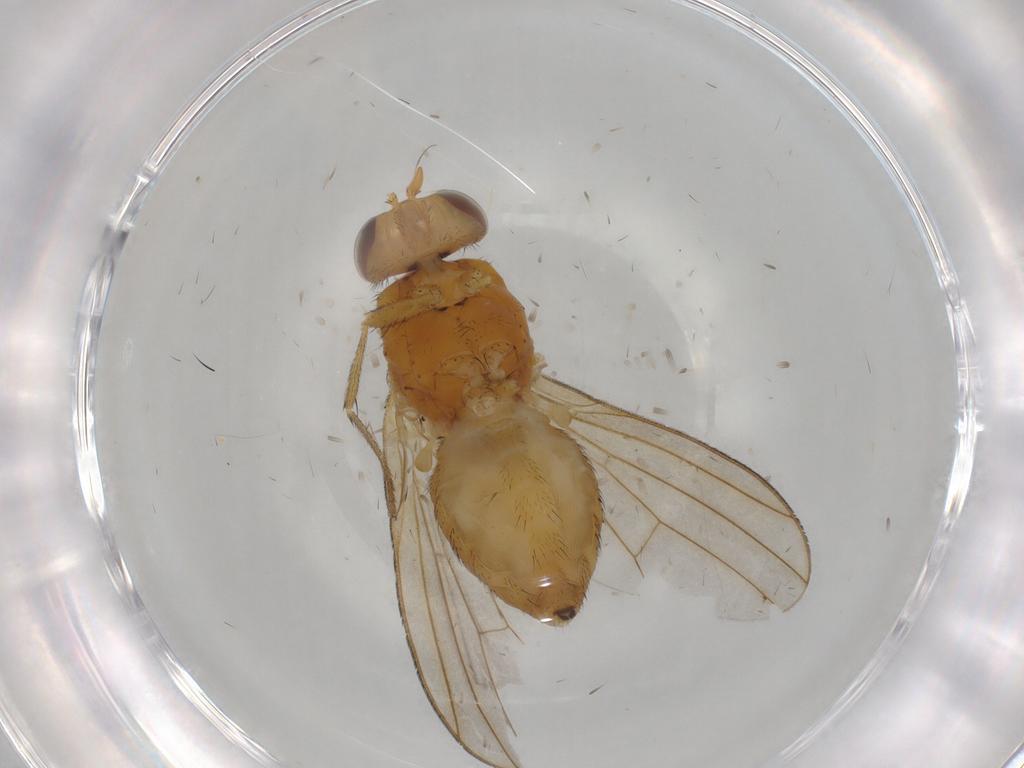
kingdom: Animalia
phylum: Arthropoda
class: Insecta
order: Diptera
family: Lauxaniidae
